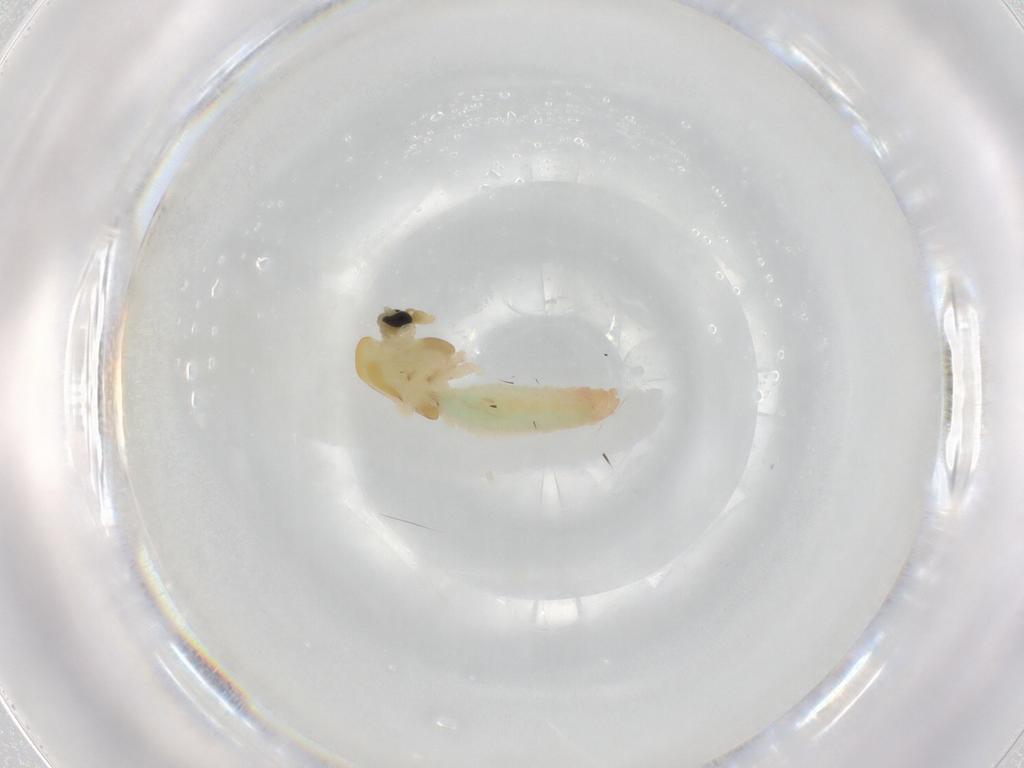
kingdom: Animalia
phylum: Arthropoda
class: Insecta
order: Diptera
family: Chironomidae
